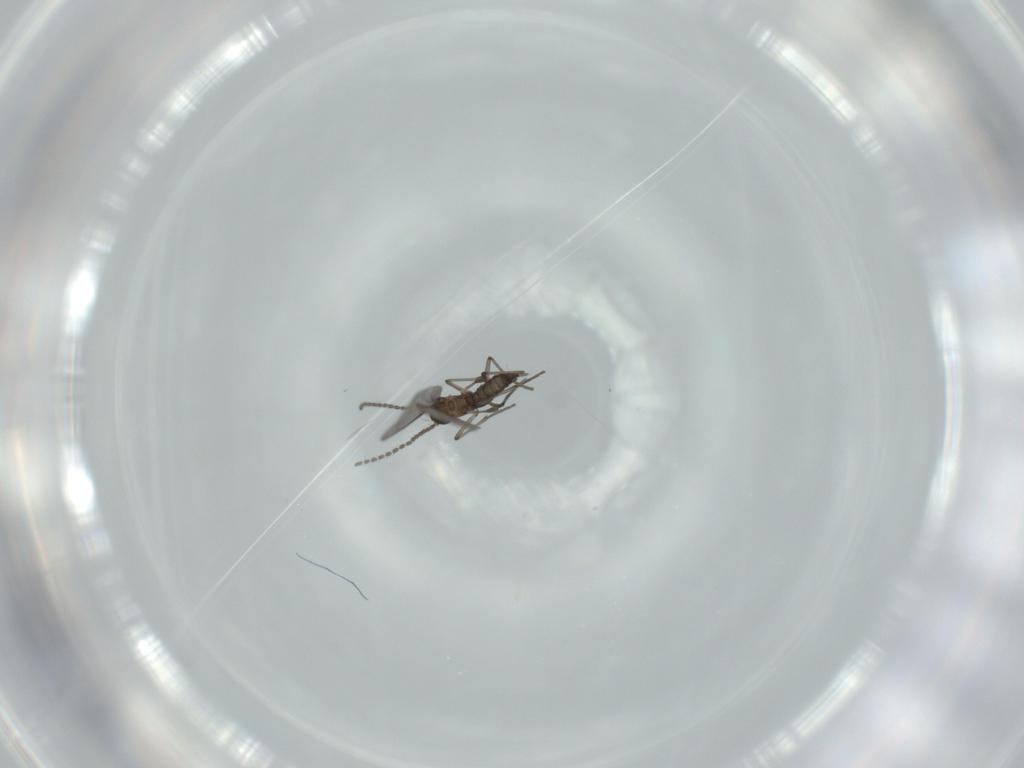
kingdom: Animalia
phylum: Arthropoda
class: Insecta
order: Diptera
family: Sciaridae
